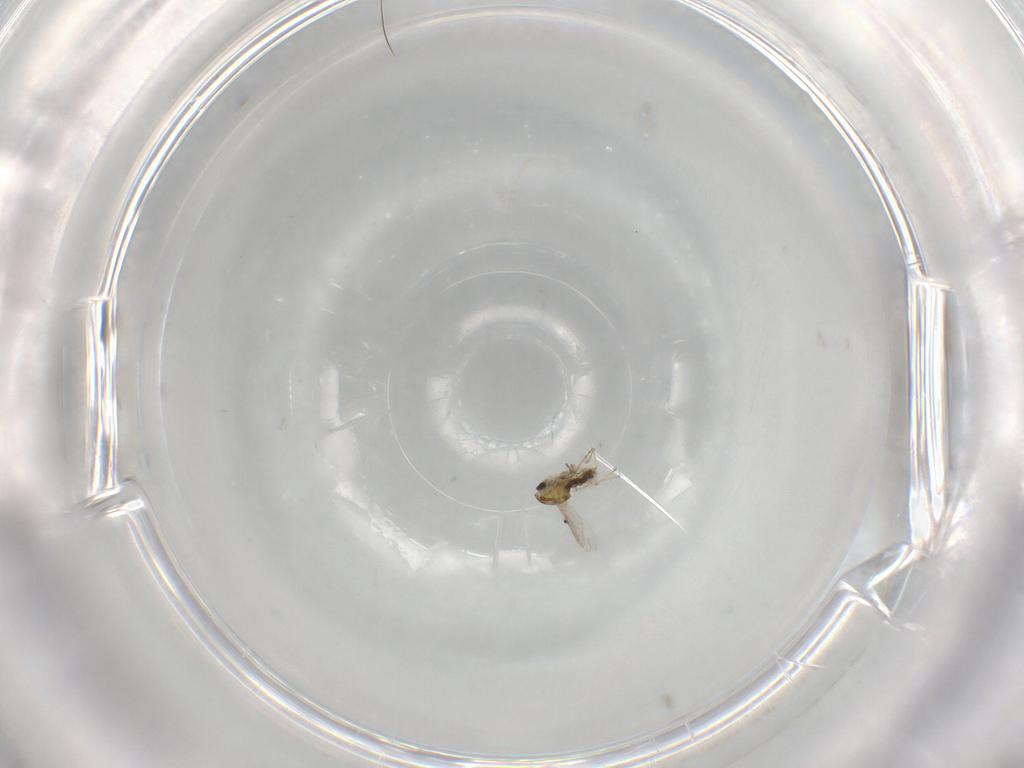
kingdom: Animalia
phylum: Arthropoda
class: Insecta
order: Diptera
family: Chironomidae
